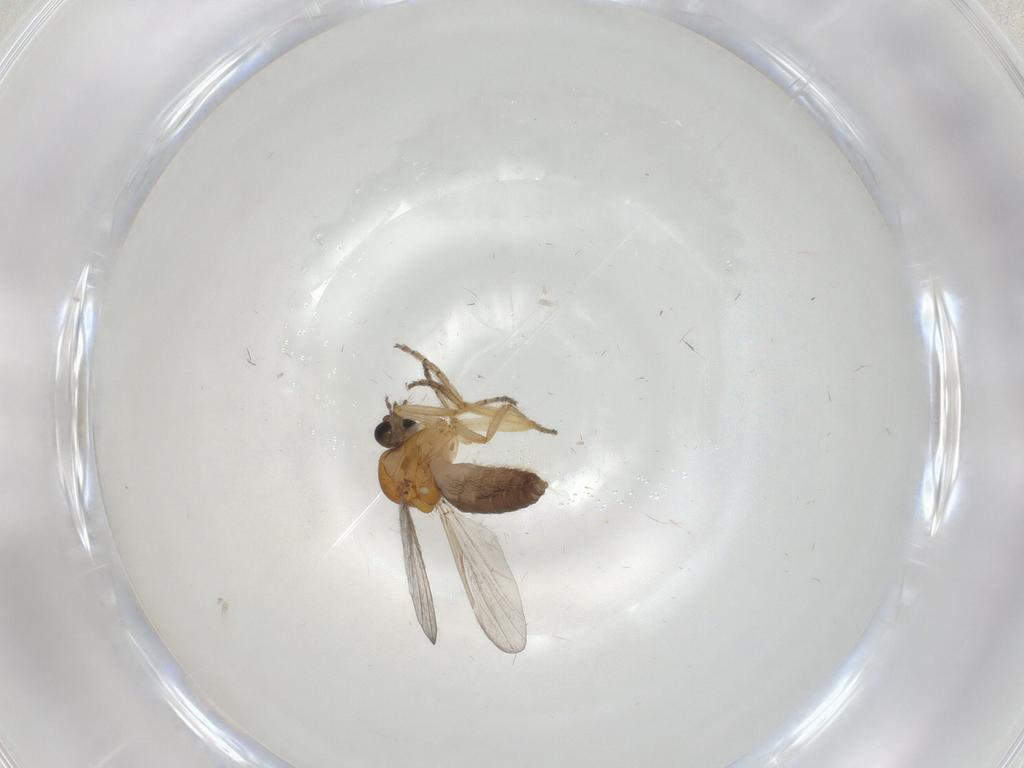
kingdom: Animalia
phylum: Arthropoda
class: Insecta
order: Diptera
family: Ceratopogonidae
